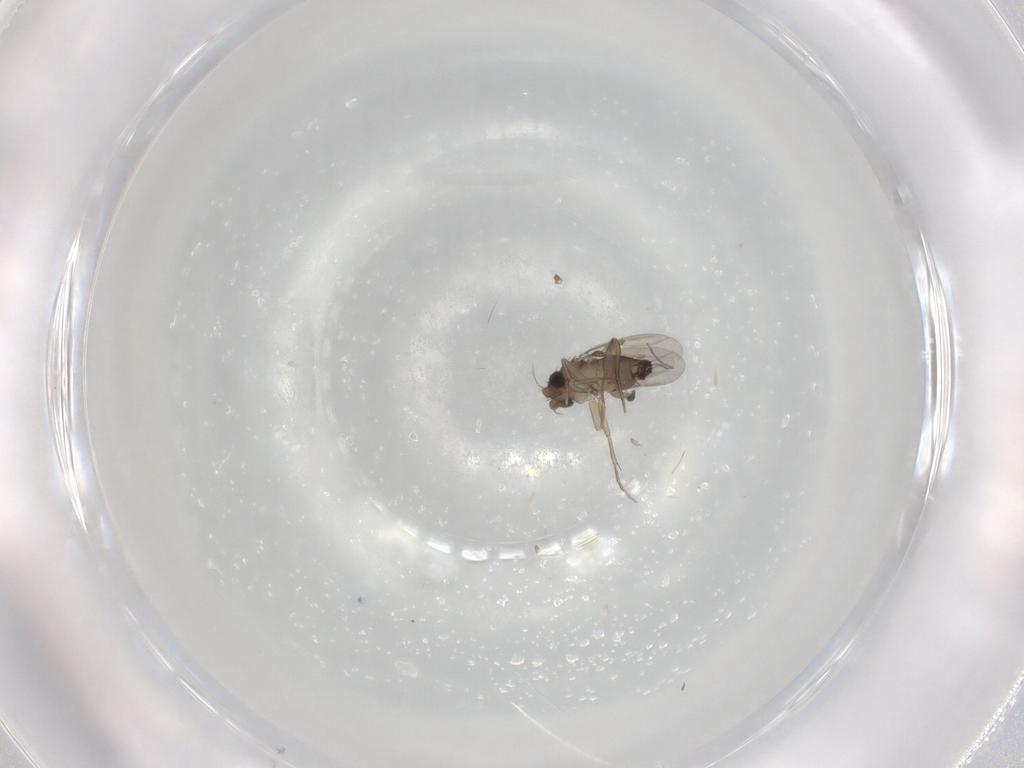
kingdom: Animalia
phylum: Arthropoda
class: Insecta
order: Diptera
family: Phoridae
